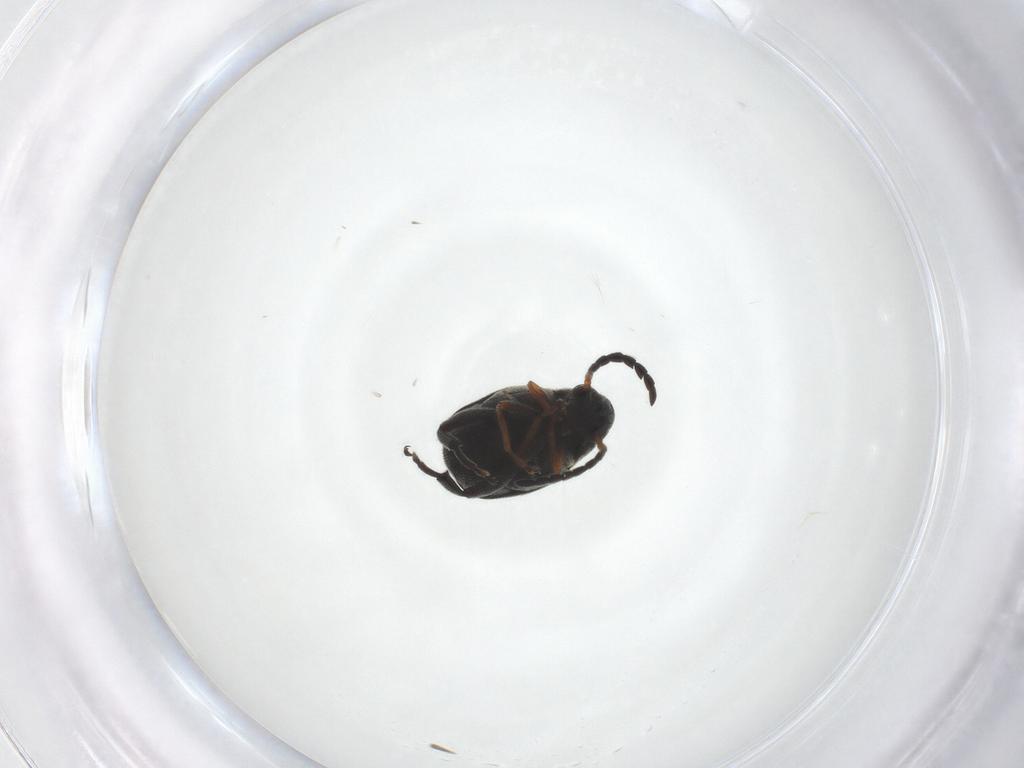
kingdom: Animalia
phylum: Arthropoda
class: Insecta
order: Coleoptera
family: Chrysomelidae
